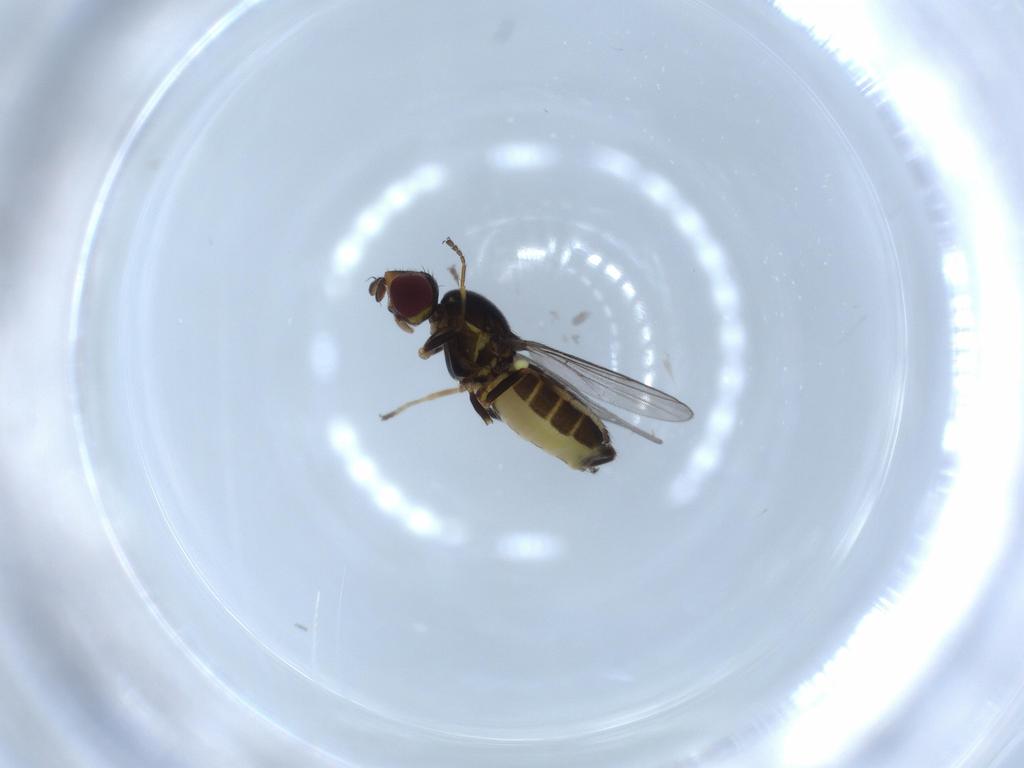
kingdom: Animalia
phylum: Arthropoda
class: Insecta
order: Diptera
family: Chloropidae
